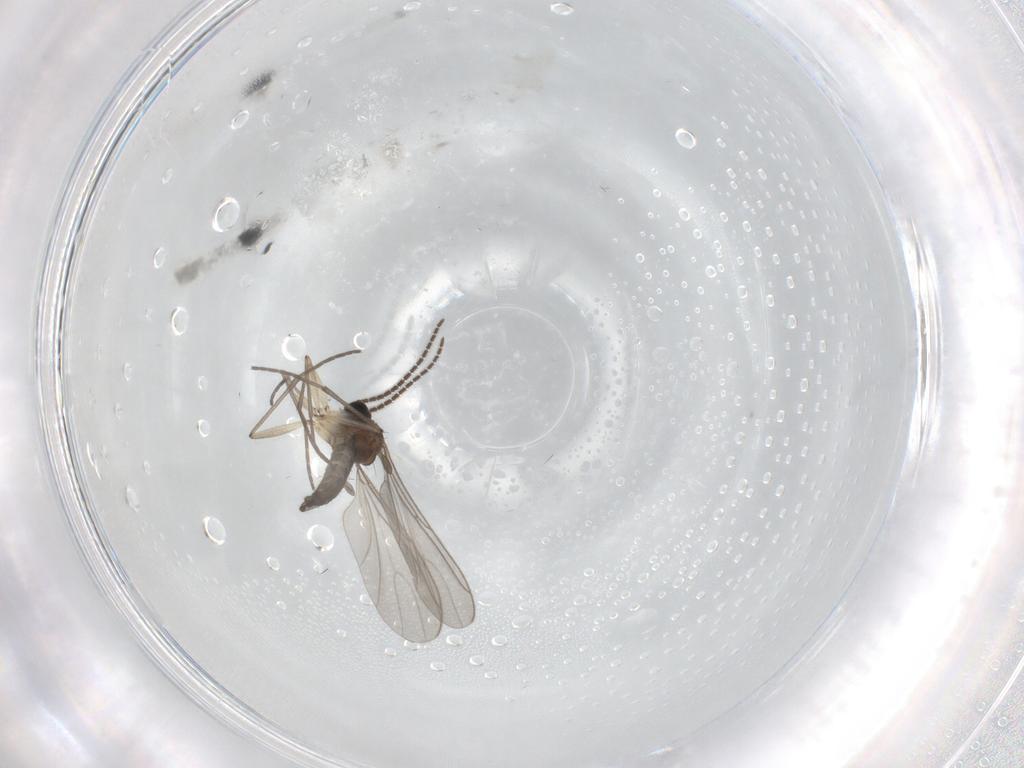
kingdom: Animalia
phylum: Arthropoda
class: Insecta
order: Diptera
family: Sciaridae
